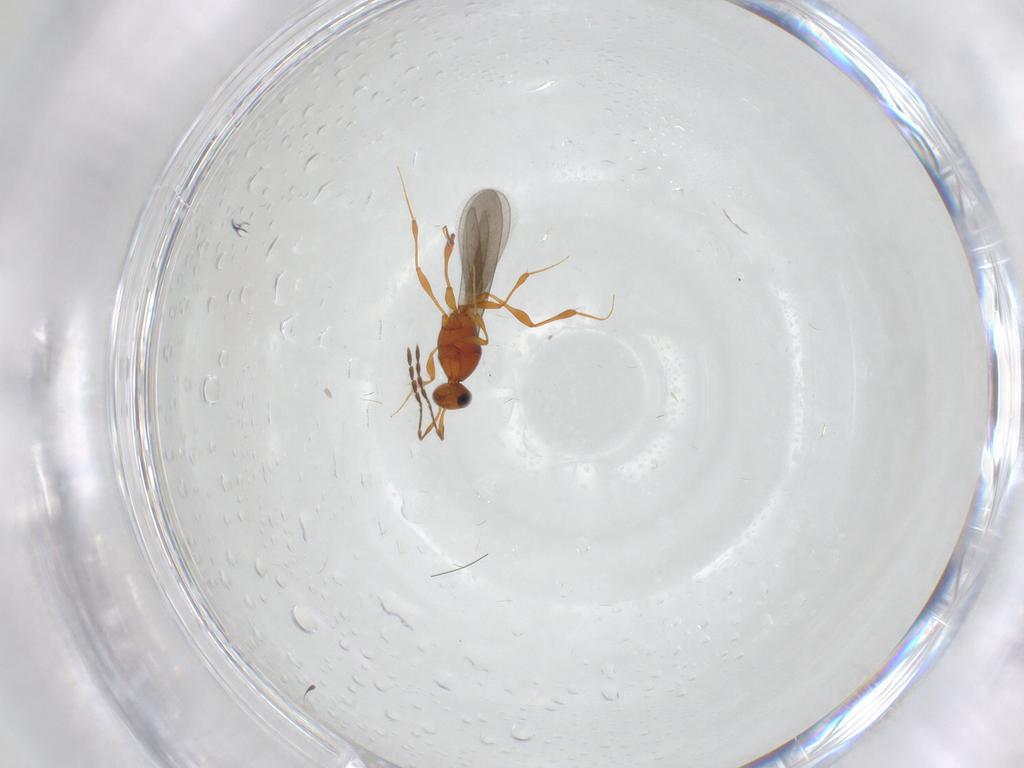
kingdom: Animalia
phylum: Arthropoda
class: Insecta
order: Hymenoptera
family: Platygastridae
